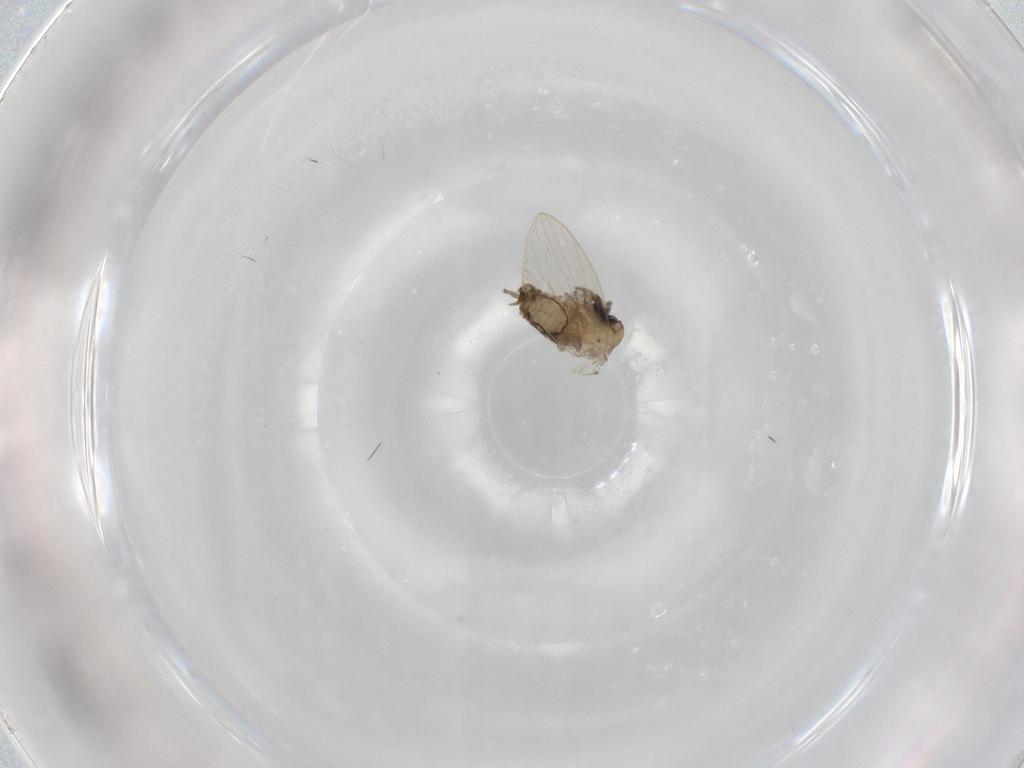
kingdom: Animalia
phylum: Arthropoda
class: Insecta
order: Diptera
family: Psychodidae
